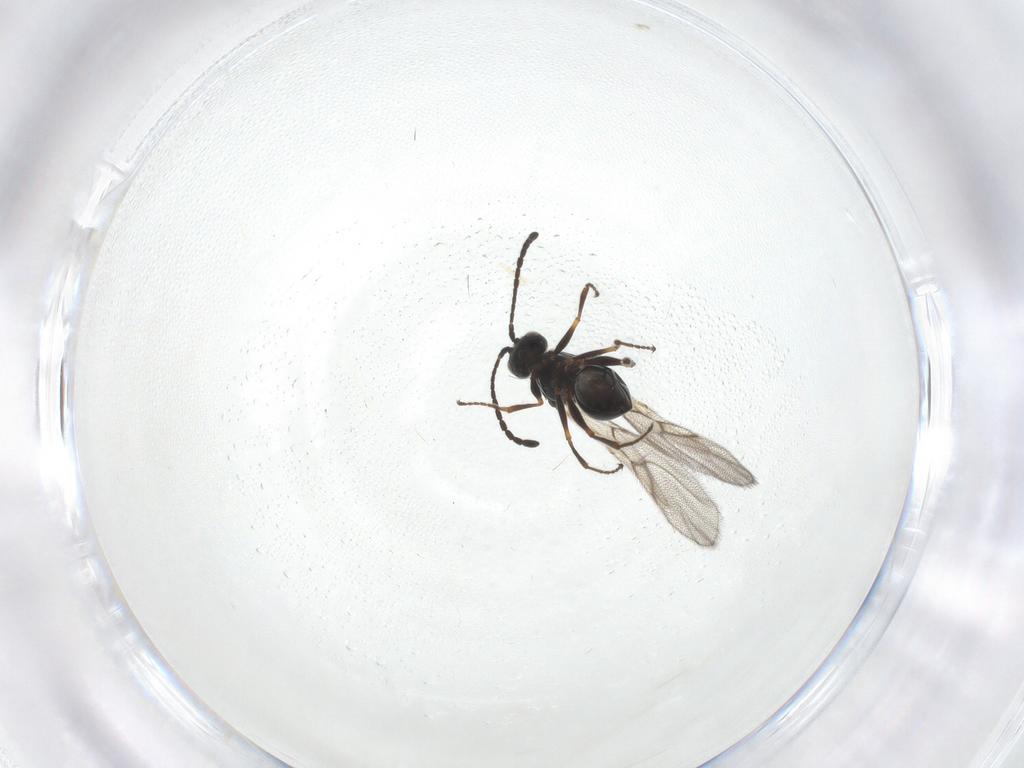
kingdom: Animalia
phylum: Arthropoda
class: Insecta
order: Hymenoptera
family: Figitidae
